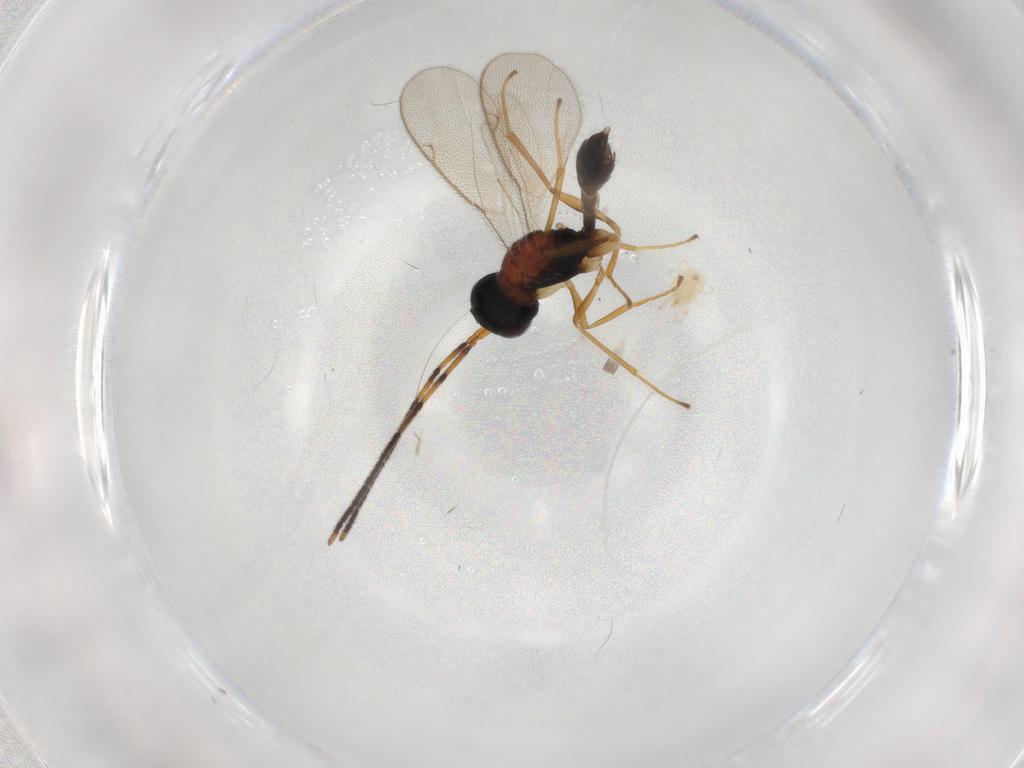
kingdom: Animalia
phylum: Arthropoda
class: Insecta
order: Hymenoptera
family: Pteromalidae
